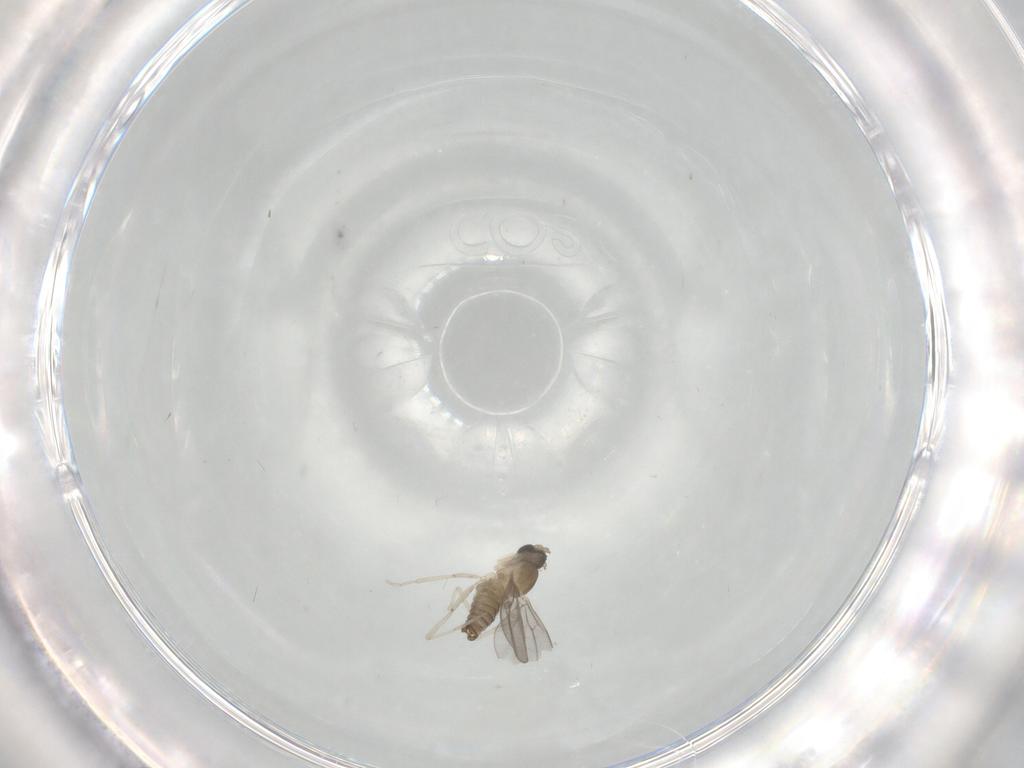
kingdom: Animalia
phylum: Arthropoda
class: Insecta
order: Diptera
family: Cecidomyiidae
